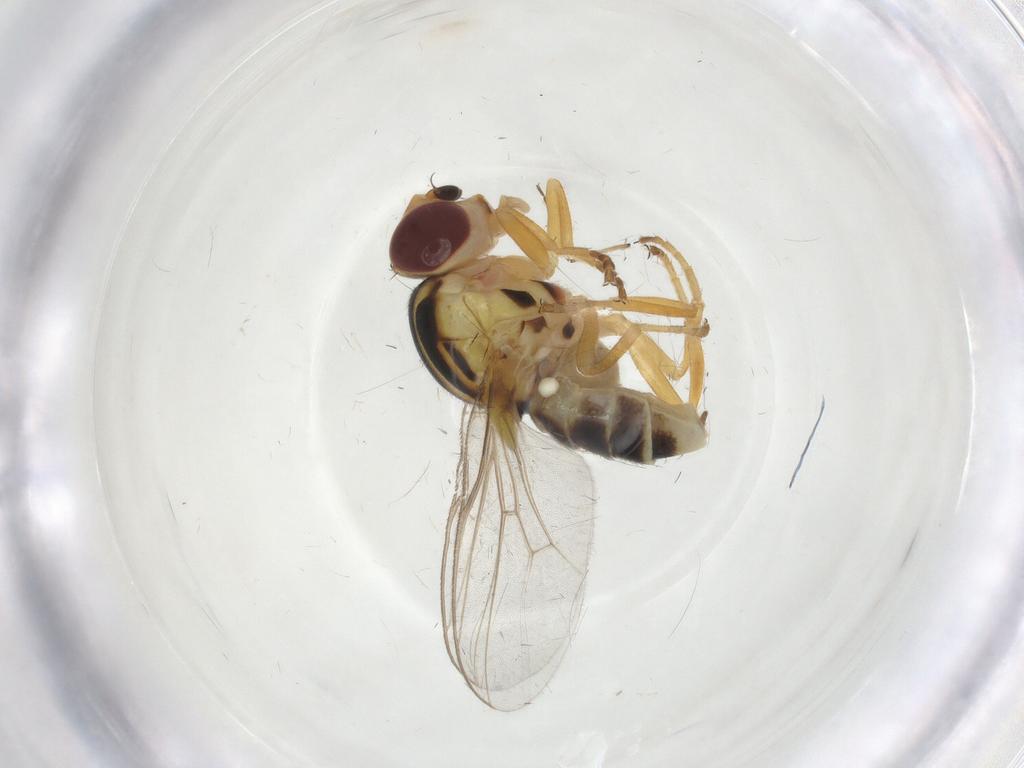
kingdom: Animalia
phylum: Arthropoda
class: Insecta
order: Diptera
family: Chloropidae
